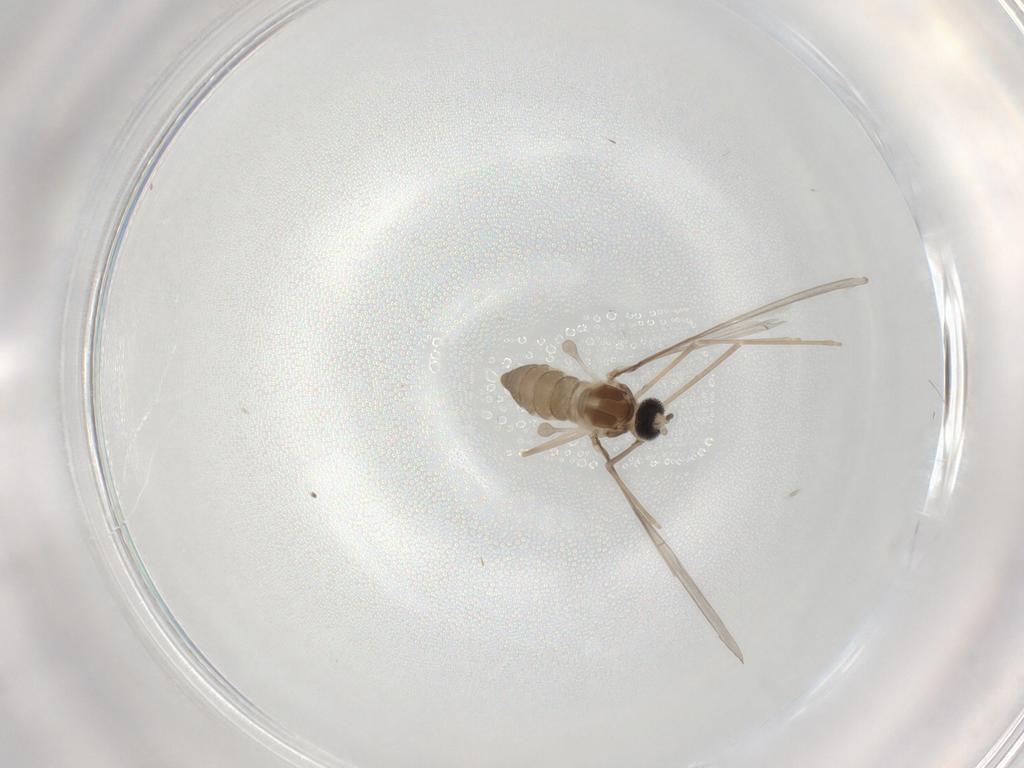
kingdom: Animalia
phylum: Arthropoda
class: Insecta
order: Diptera
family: Cecidomyiidae
